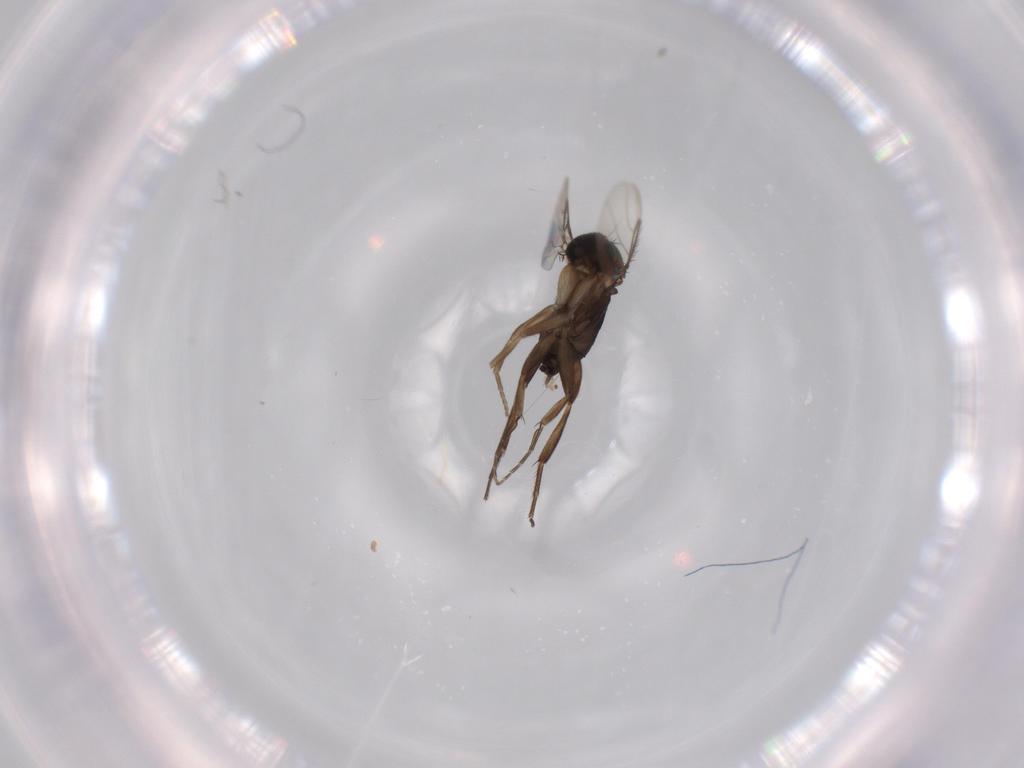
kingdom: Animalia
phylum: Arthropoda
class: Insecta
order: Diptera
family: Phoridae
